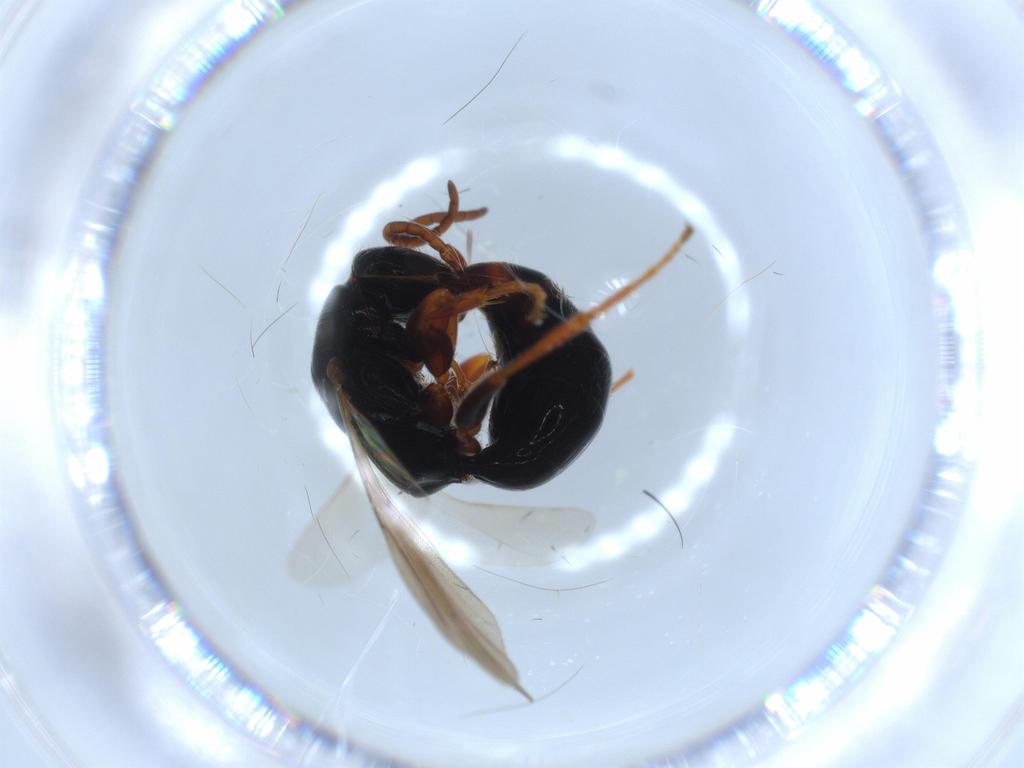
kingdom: Animalia
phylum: Arthropoda
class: Insecta
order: Hymenoptera
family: Bethylidae
